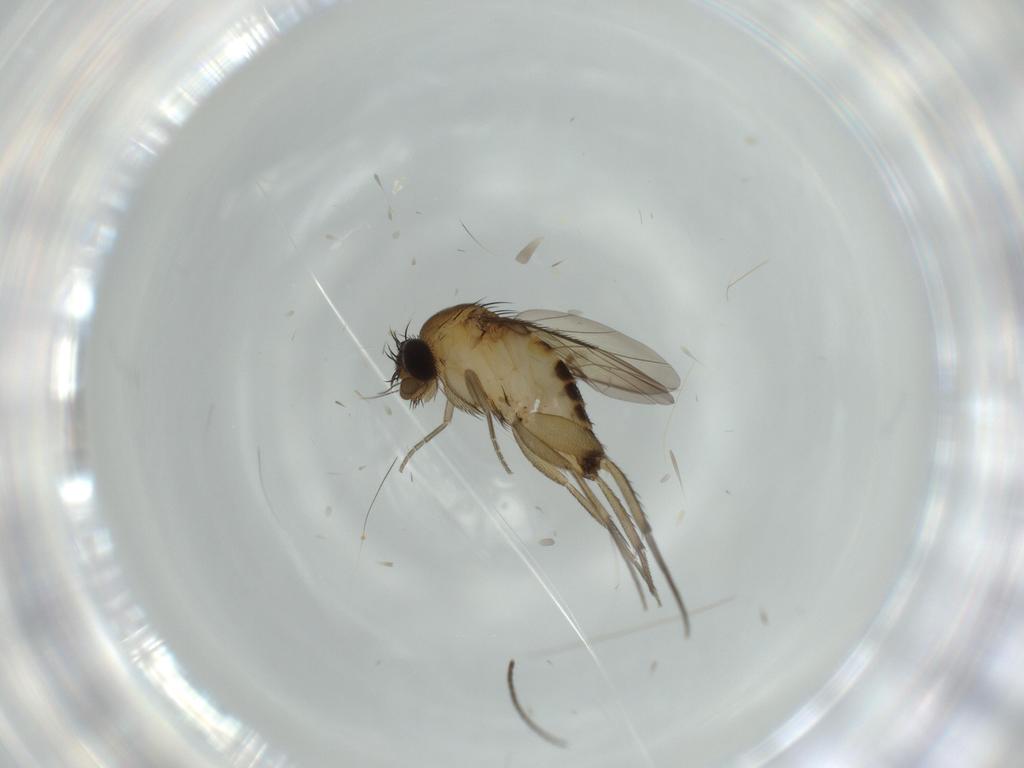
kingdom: Animalia
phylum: Arthropoda
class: Insecta
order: Diptera
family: Phoridae
